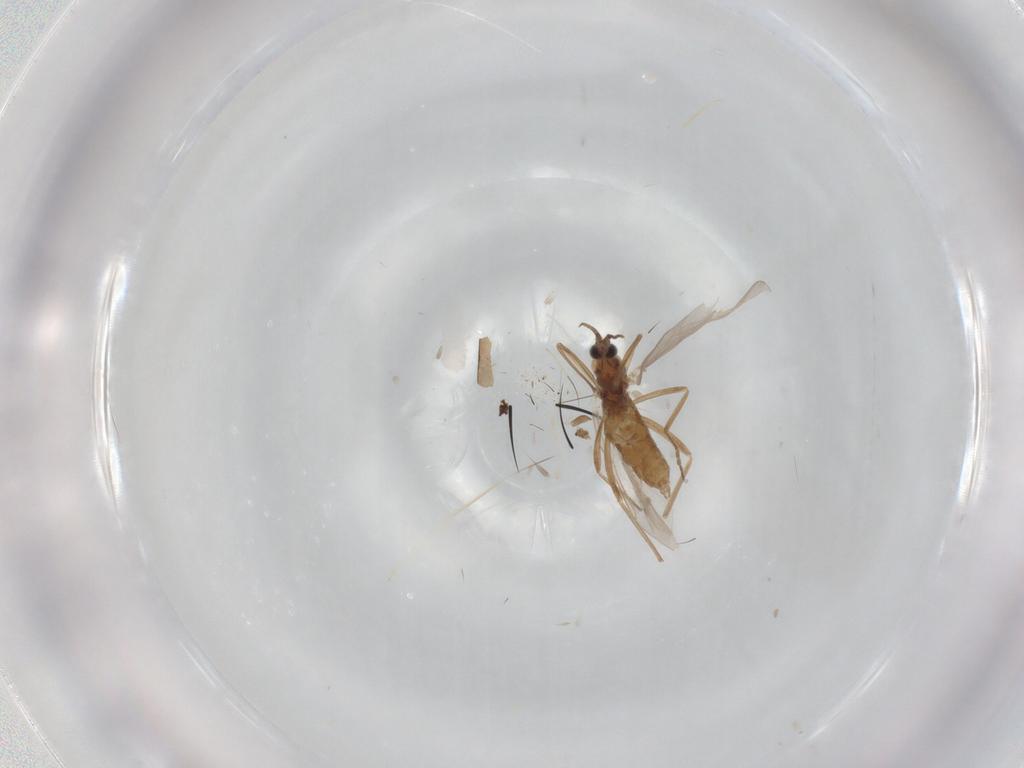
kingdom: Animalia
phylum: Arthropoda
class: Insecta
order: Diptera
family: Cecidomyiidae
